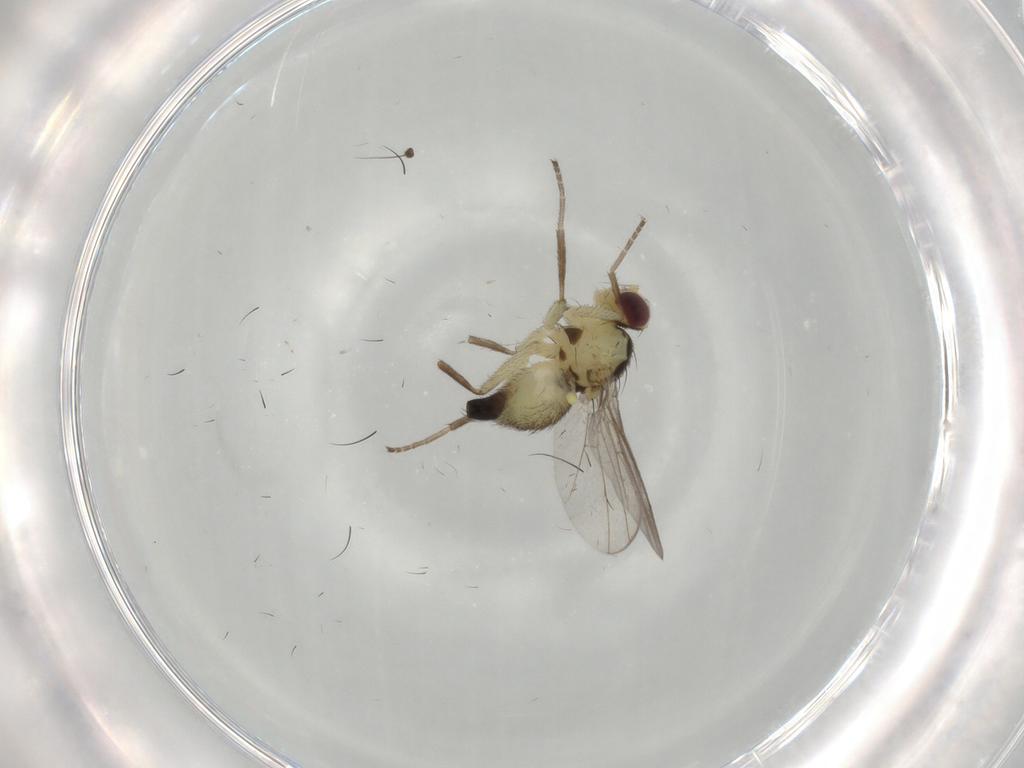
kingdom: Animalia
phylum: Arthropoda
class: Insecta
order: Diptera
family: Agromyzidae
